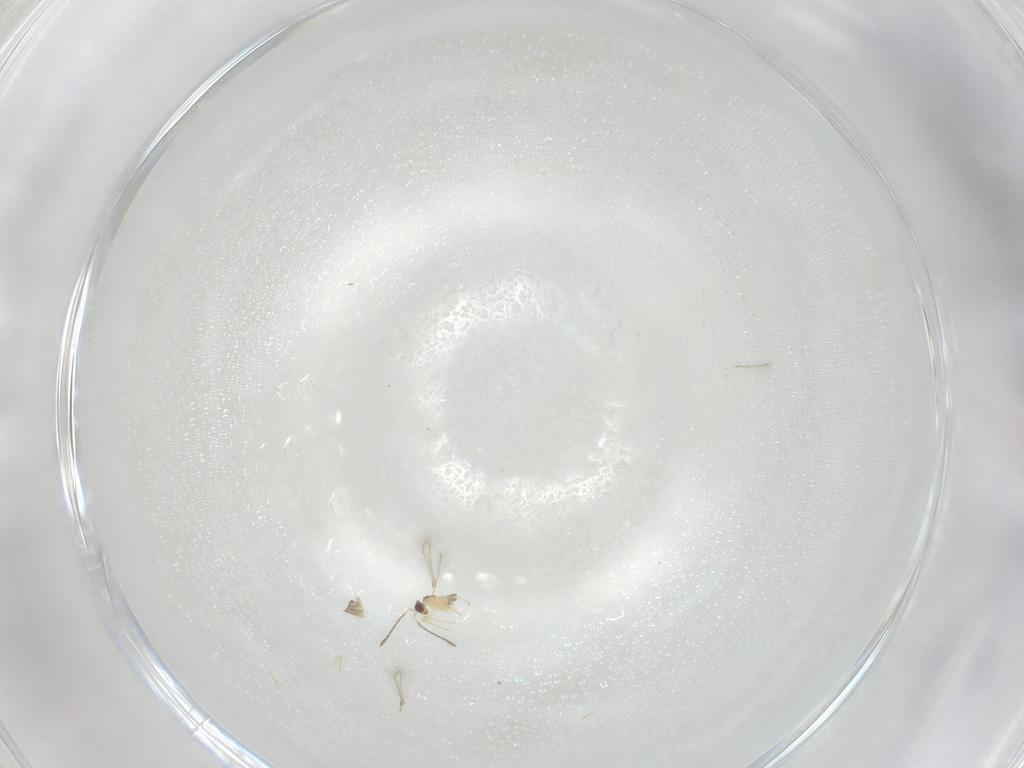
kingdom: Animalia
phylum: Arthropoda
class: Insecta
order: Hymenoptera
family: Mymaridae
